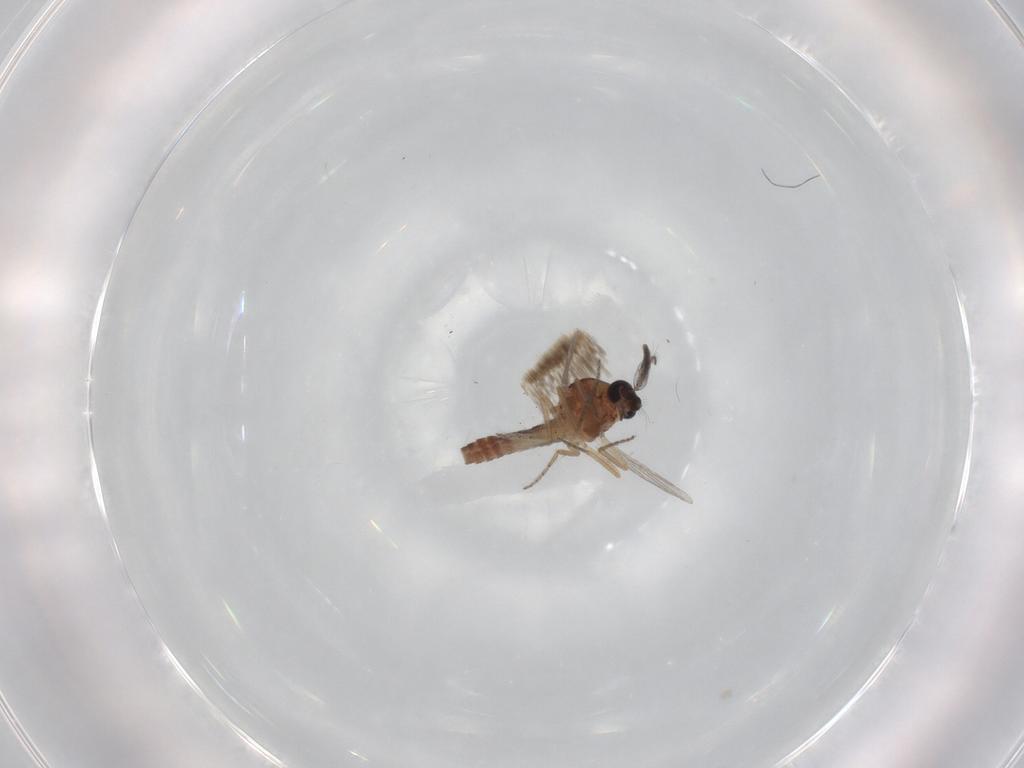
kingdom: Animalia
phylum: Arthropoda
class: Insecta
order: Diptera
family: Ceratopogonidae
